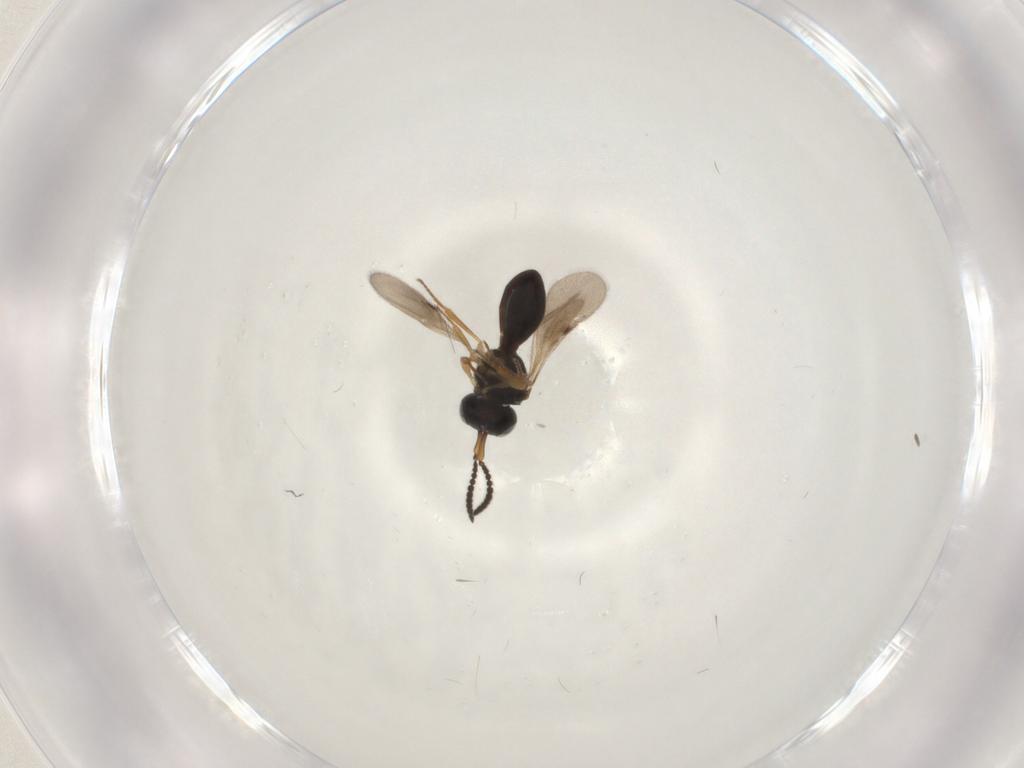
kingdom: Animalia
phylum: Arthropoda
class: Insecta
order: Hymenoptera
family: Scelionidae
